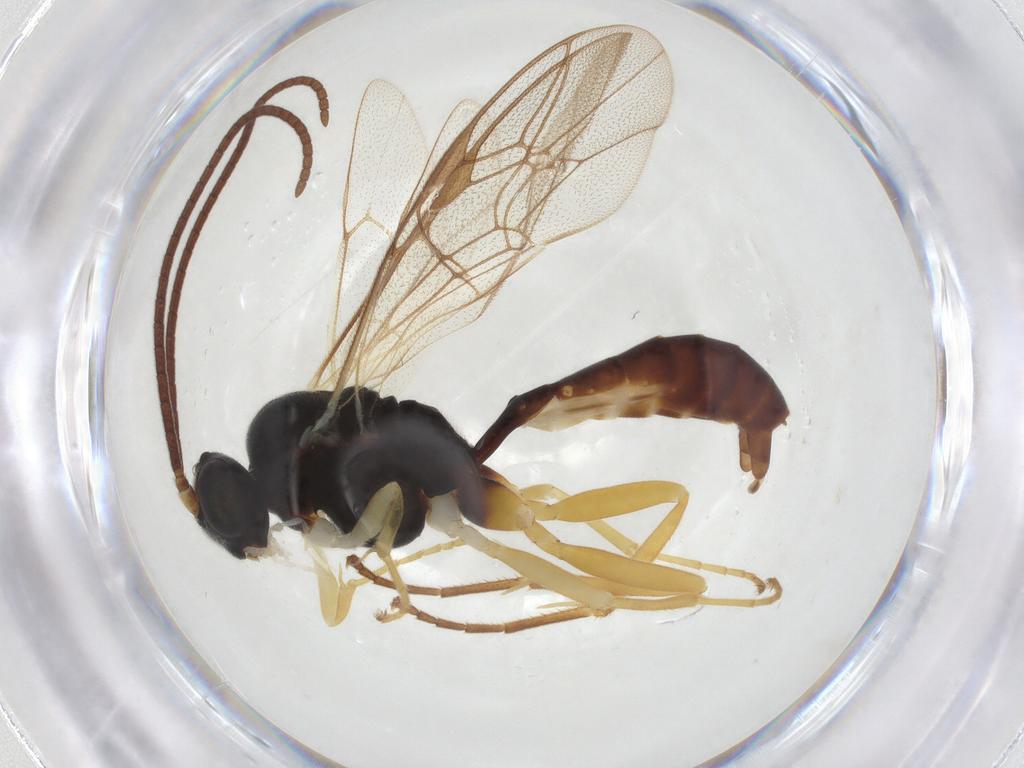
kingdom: Animalia
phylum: Arthropoda
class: Insecta
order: Hymenoptera
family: Ichneumonidae
